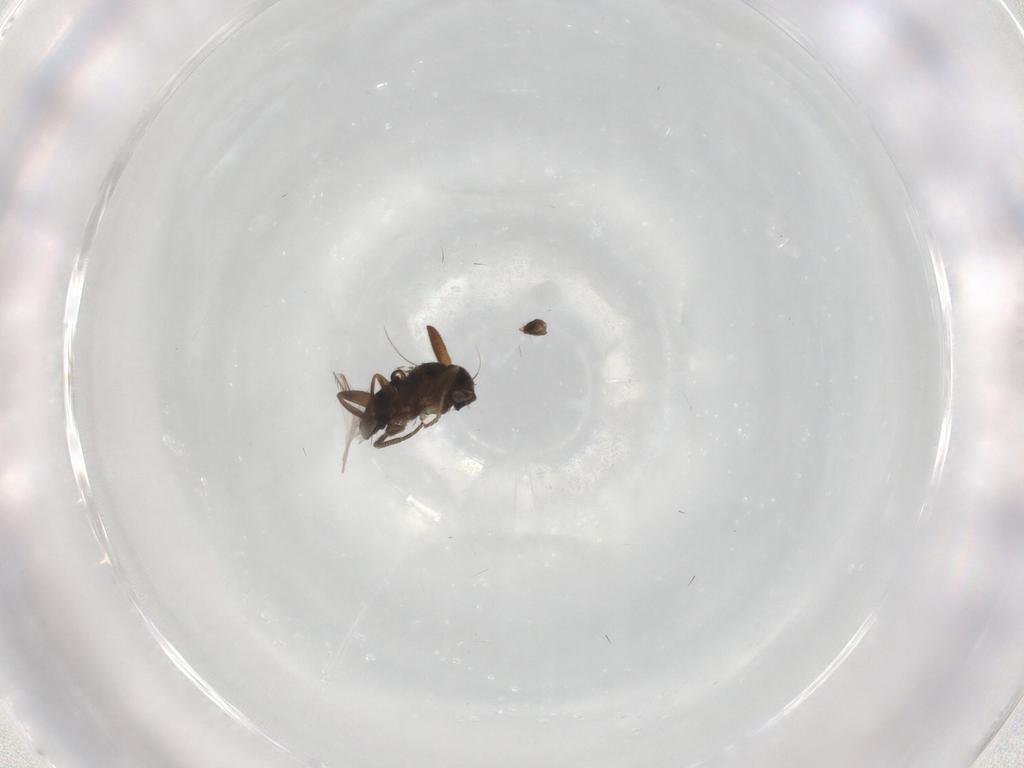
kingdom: Animalia
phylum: Arthropoda
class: Insecta
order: Diptera
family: Phoridae
